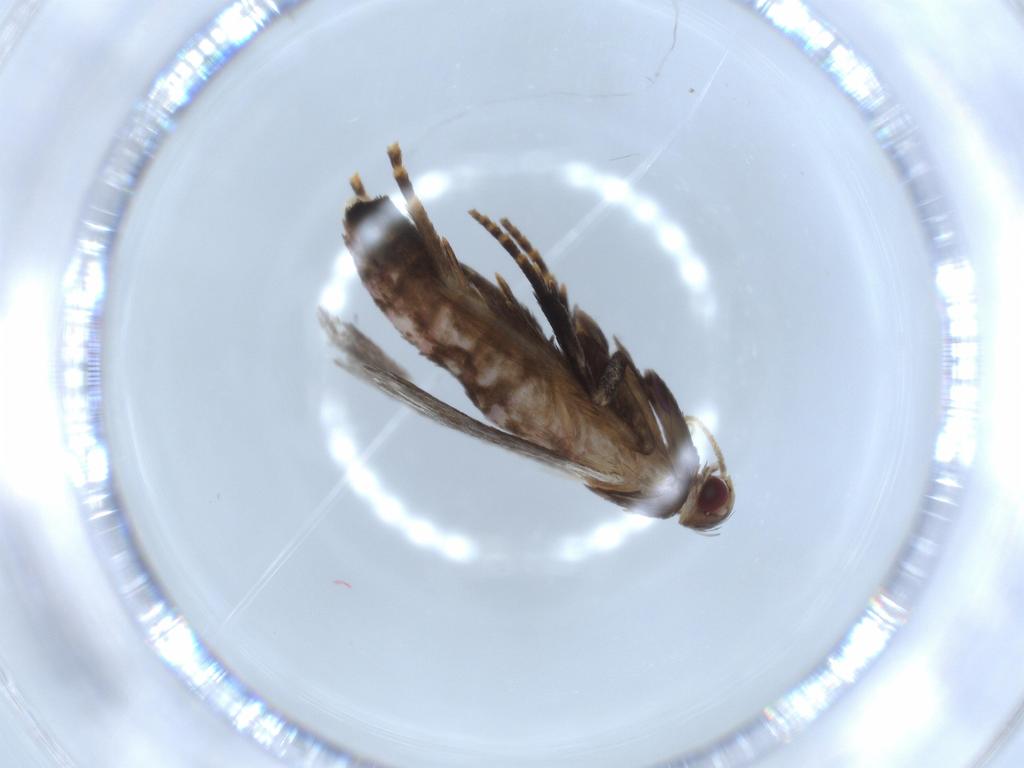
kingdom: Animalia
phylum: Arthropoda
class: Insecta
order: Lepidoptera
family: Gelechiidae
